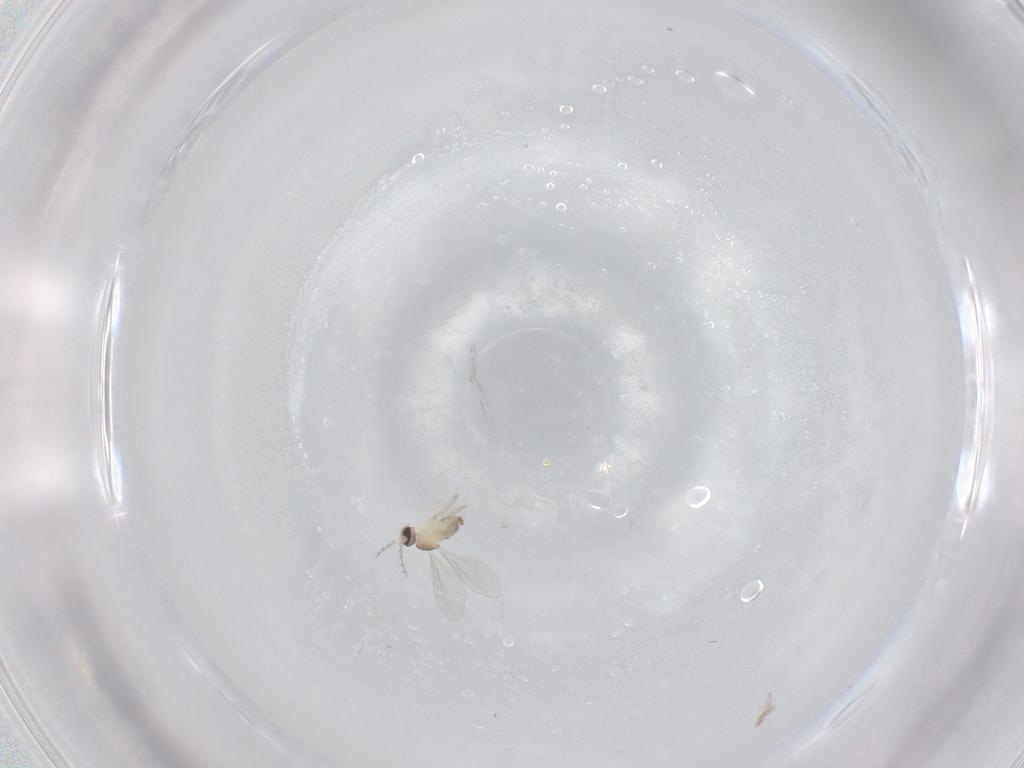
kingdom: Animalia
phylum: Arthropoda
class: Insecta
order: Diptera
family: Cecidomyiidae
